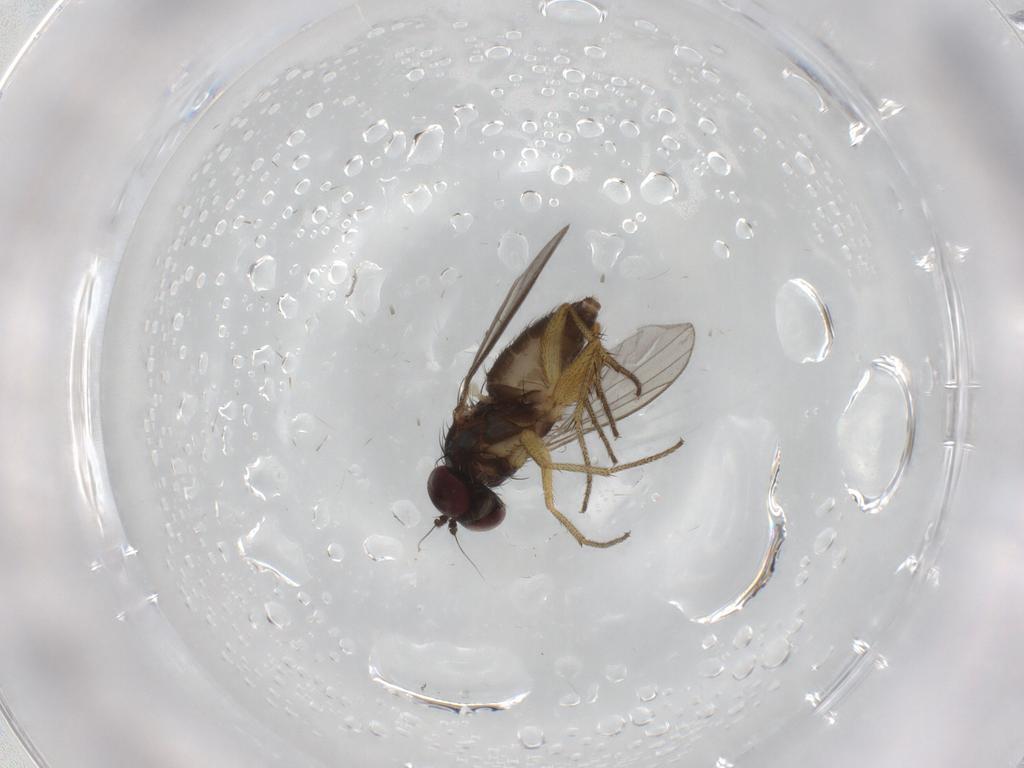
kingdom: Animalia
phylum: Arthropoda
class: Insecta
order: Diptera
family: Dolichopodidae
